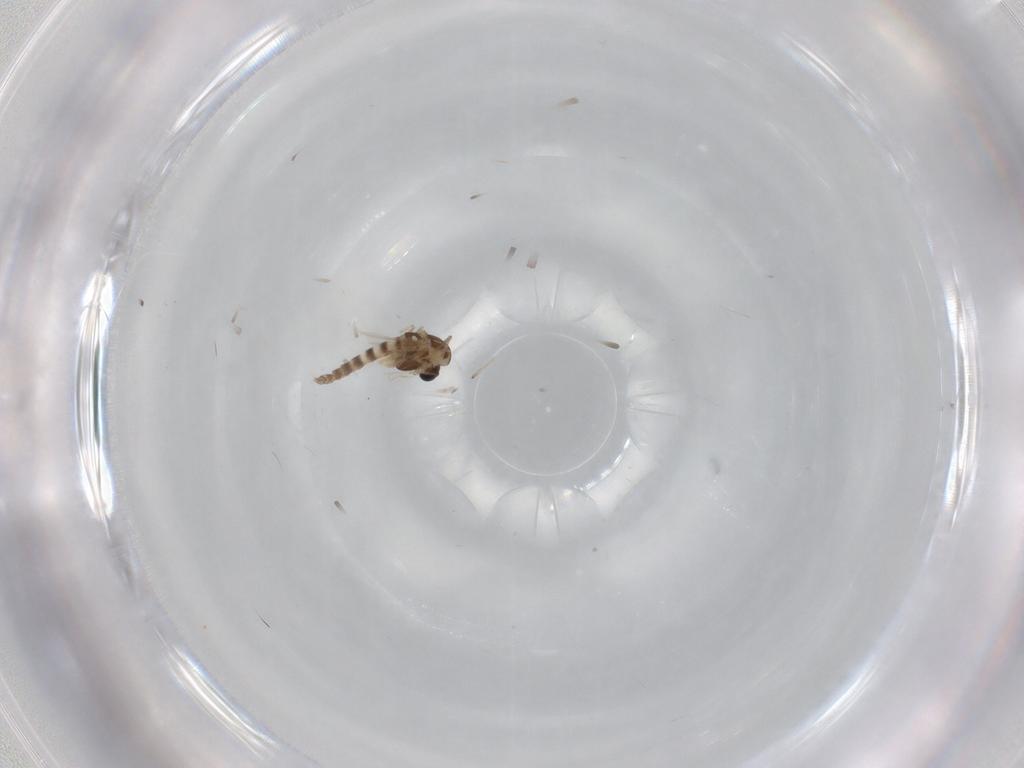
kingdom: Animalia
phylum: Arthropoda
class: Insecta
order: Diptera
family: Chironomidae
